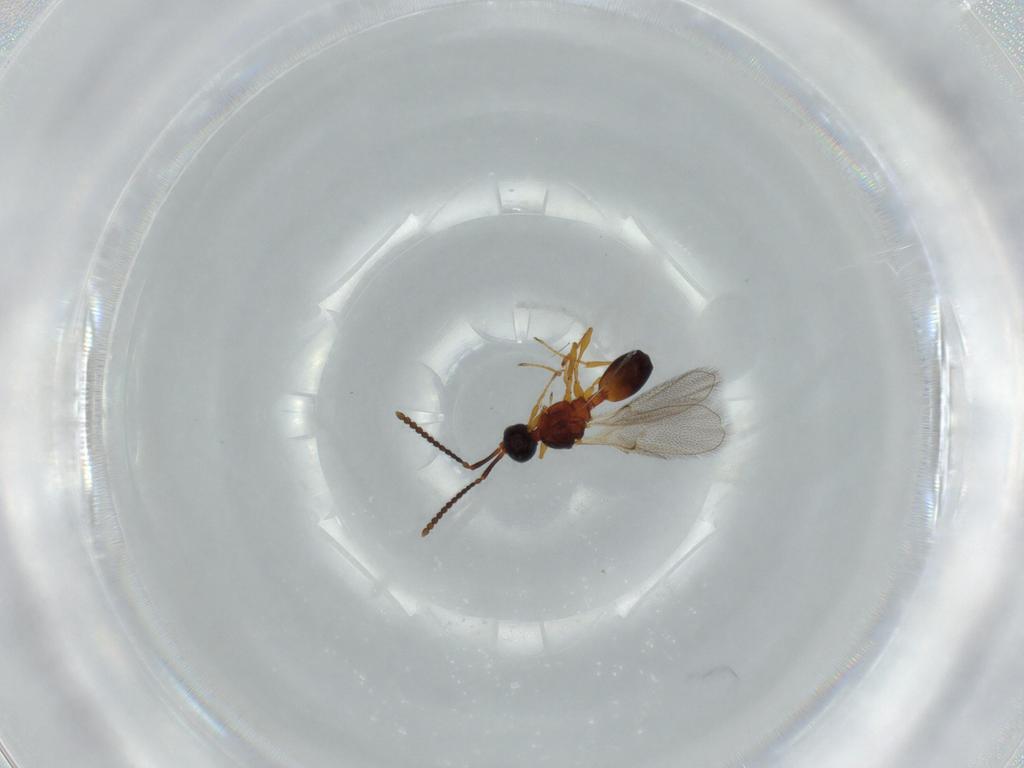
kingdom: Animalia
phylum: Arthropoda
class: Insecta
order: Hymenoptera
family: Diapriidae
